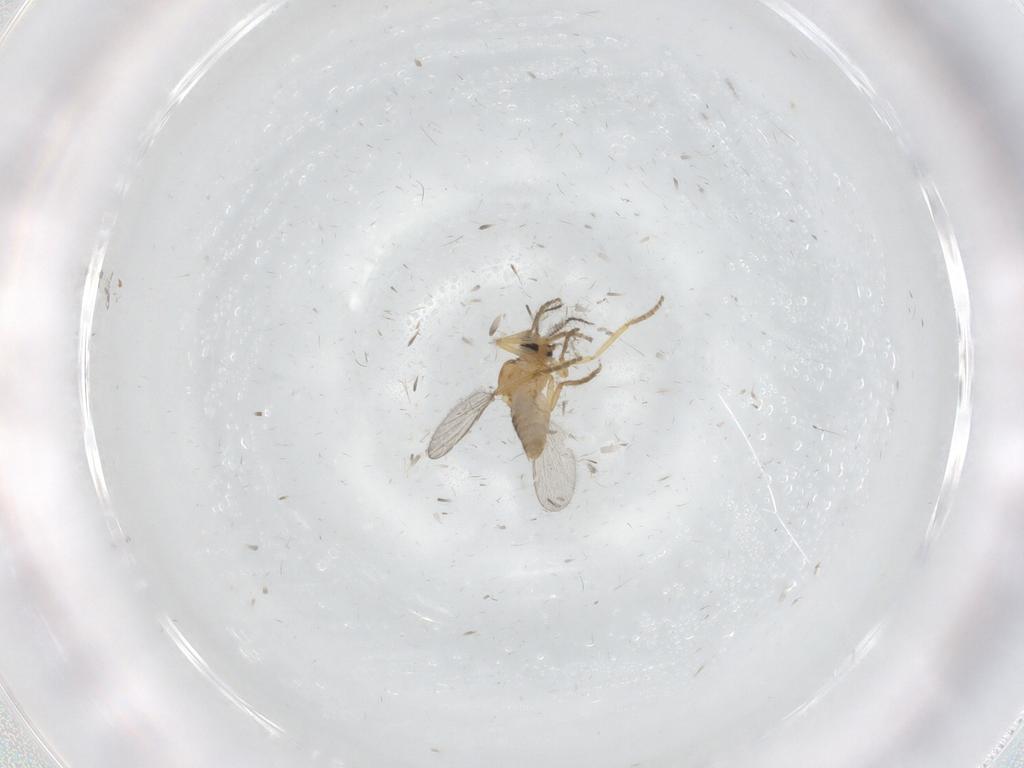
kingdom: Animalia
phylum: Arthropoda
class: Insecta
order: Diptera
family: Ceratopogonidae
